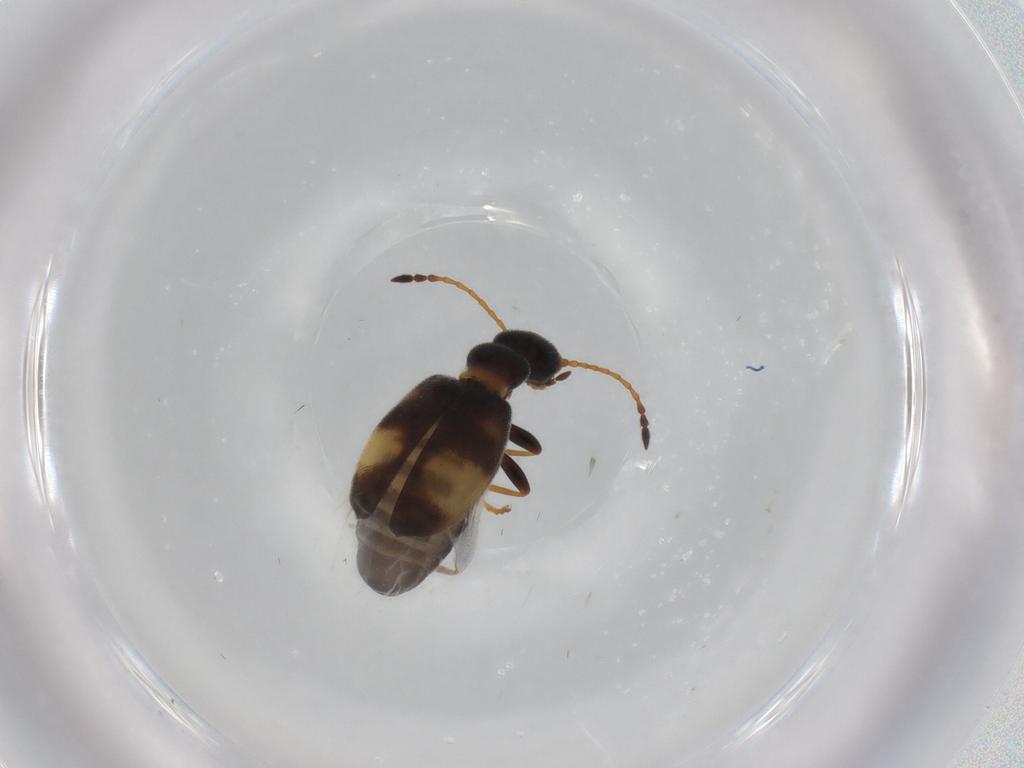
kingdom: Animalia
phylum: Arthropoda
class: Insecta
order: Coleoptera
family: Anthicidae
